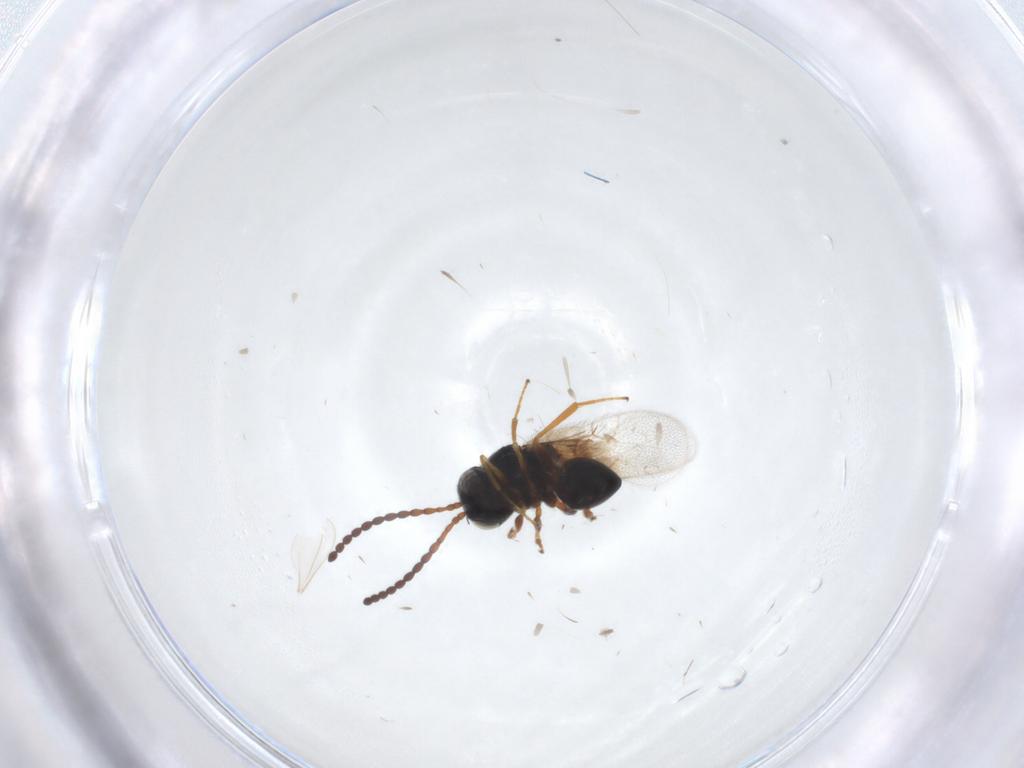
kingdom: Animalia
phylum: Arthropoda
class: Insecta
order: Hymenoptera
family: Pompilidae
